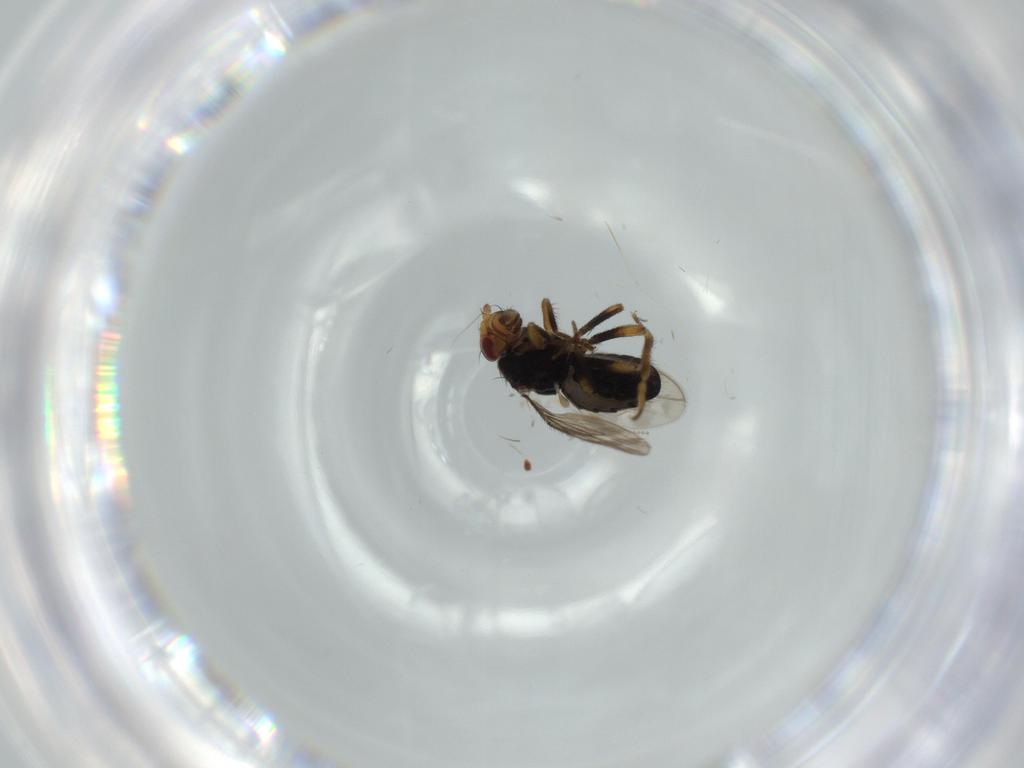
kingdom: Animalia
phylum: Arthropoda
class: Insecta
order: Diptera
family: Sphaeroceridae
